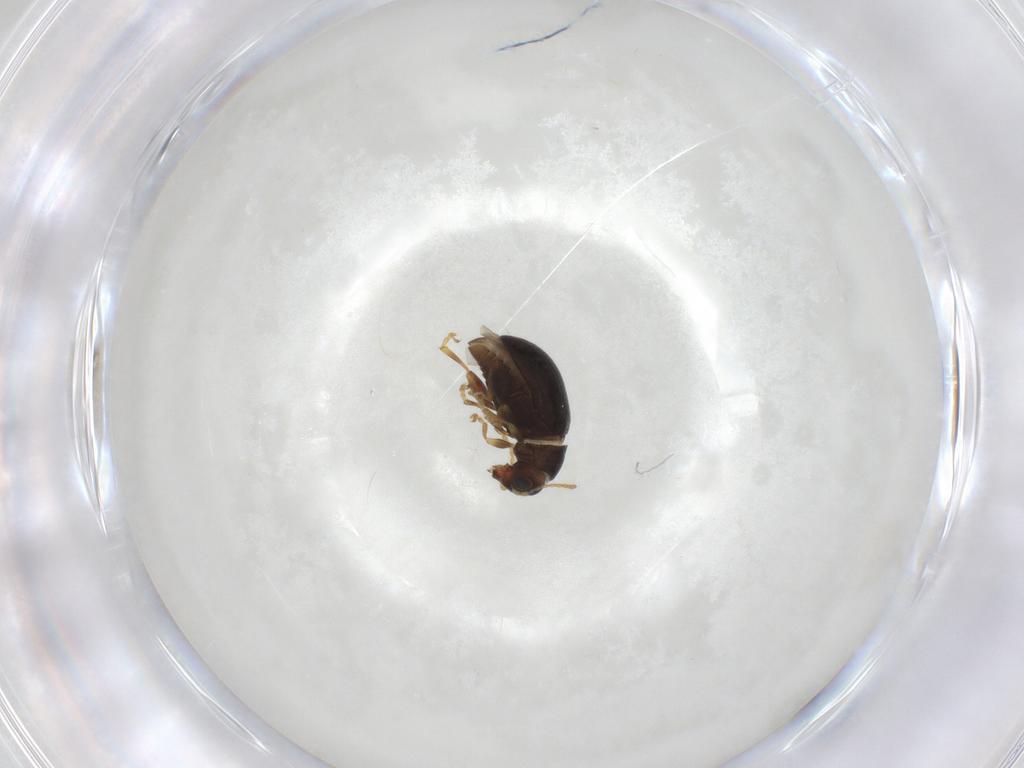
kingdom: Animalia
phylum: Arthropoda
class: Insecta
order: Coleoptera
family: Chrysomelidae
